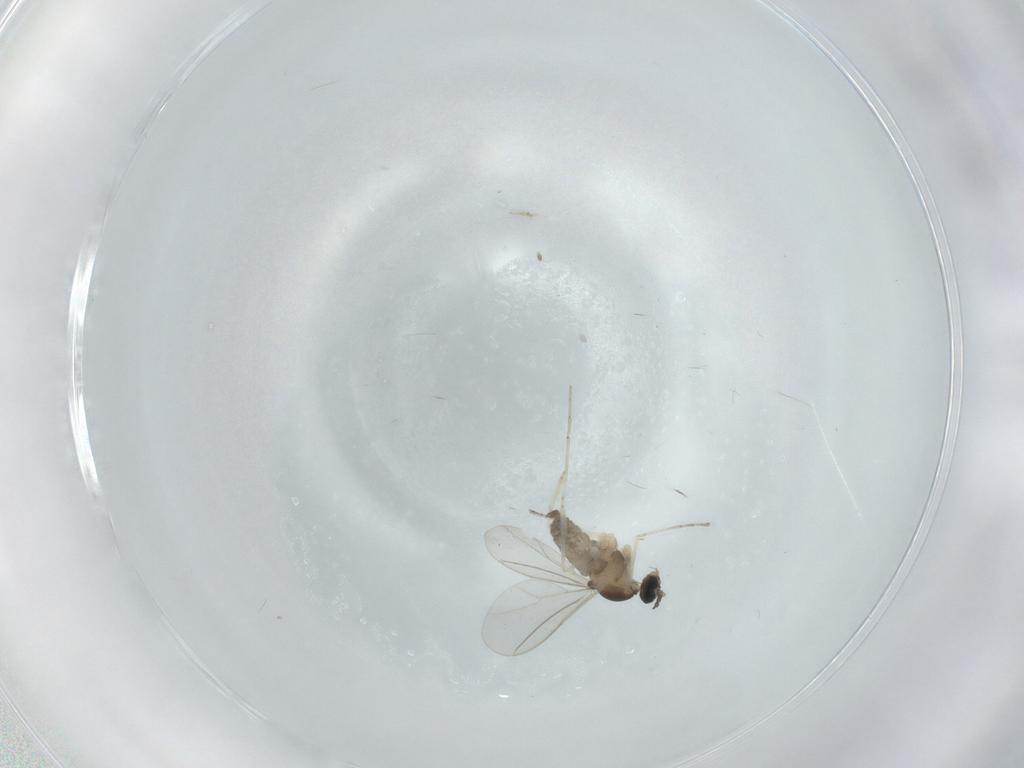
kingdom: Animalia
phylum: Arthropoda
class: Insecta
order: Diptera
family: Cecidomyiidae
